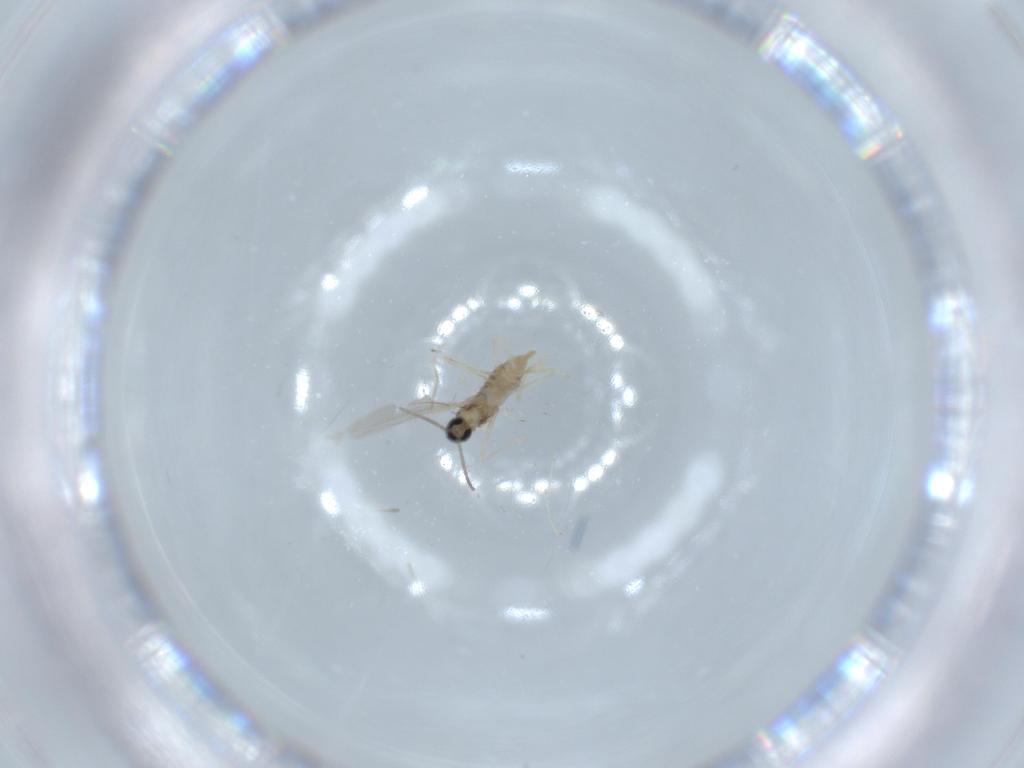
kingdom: Animalia
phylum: Arthropoda
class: Insecta
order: Diptera
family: Cecidomyiidae
